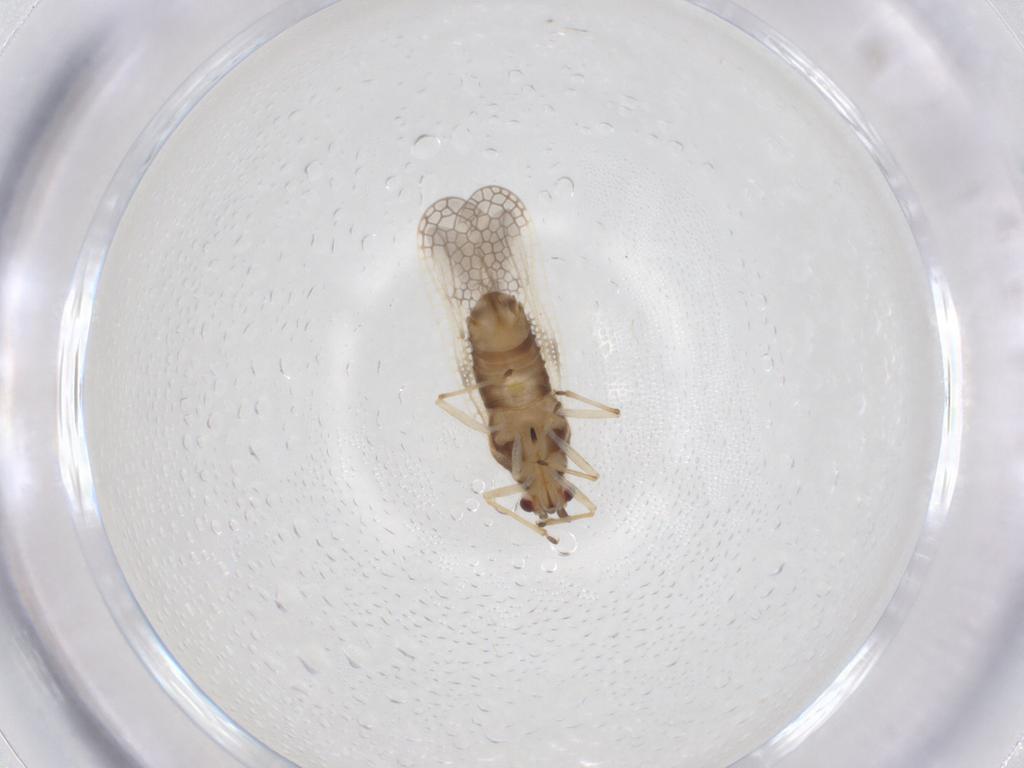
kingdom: Animalia
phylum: Arthropoda
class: Insecta
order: Hemiptera
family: Tingidae
